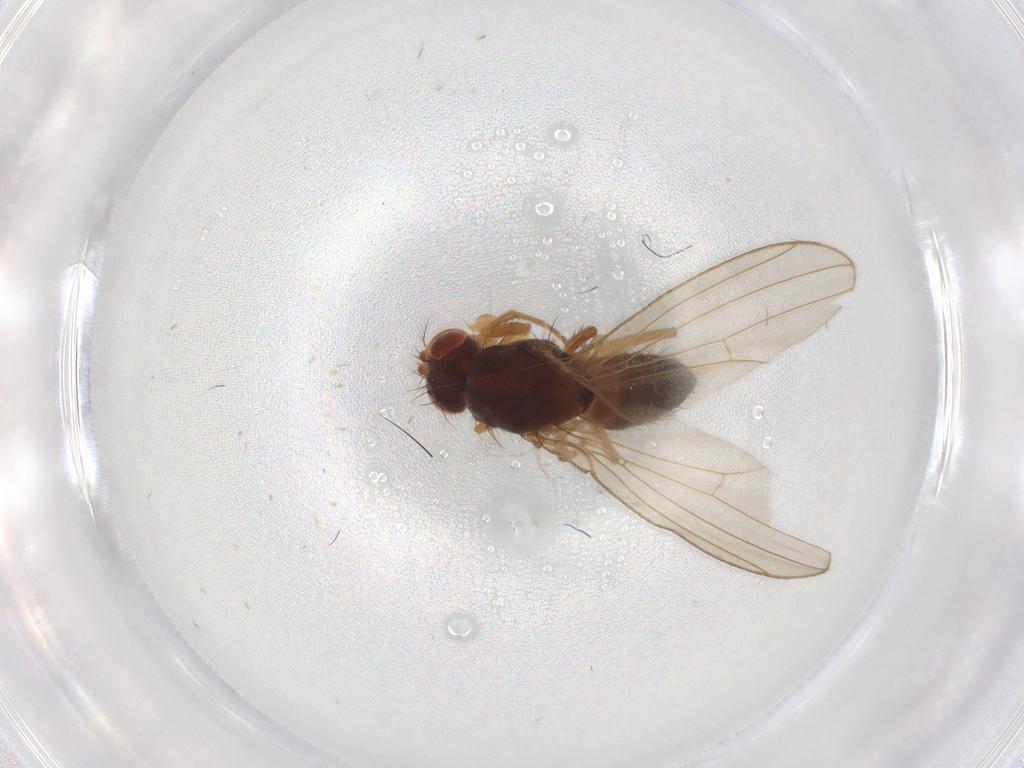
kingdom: Animalia
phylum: Arthropoda
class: Insecta
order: Diptera
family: Drosophilidae
